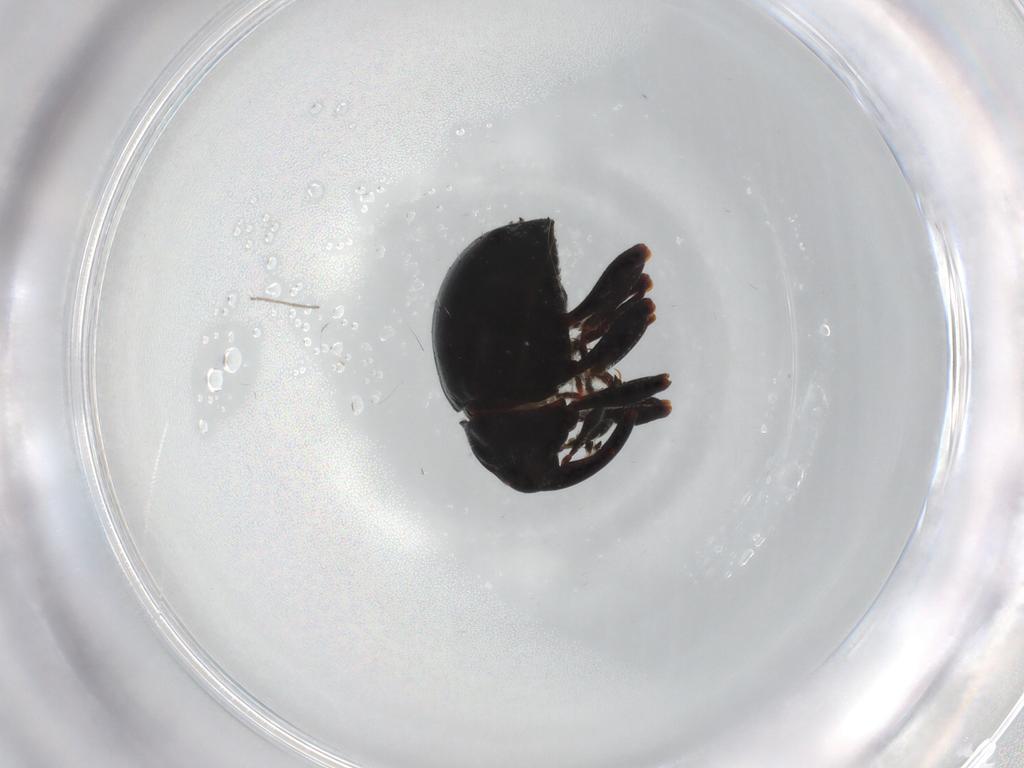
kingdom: Animalia
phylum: Arthropoda
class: Insecta
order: Coleoptera
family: Curculionidae
